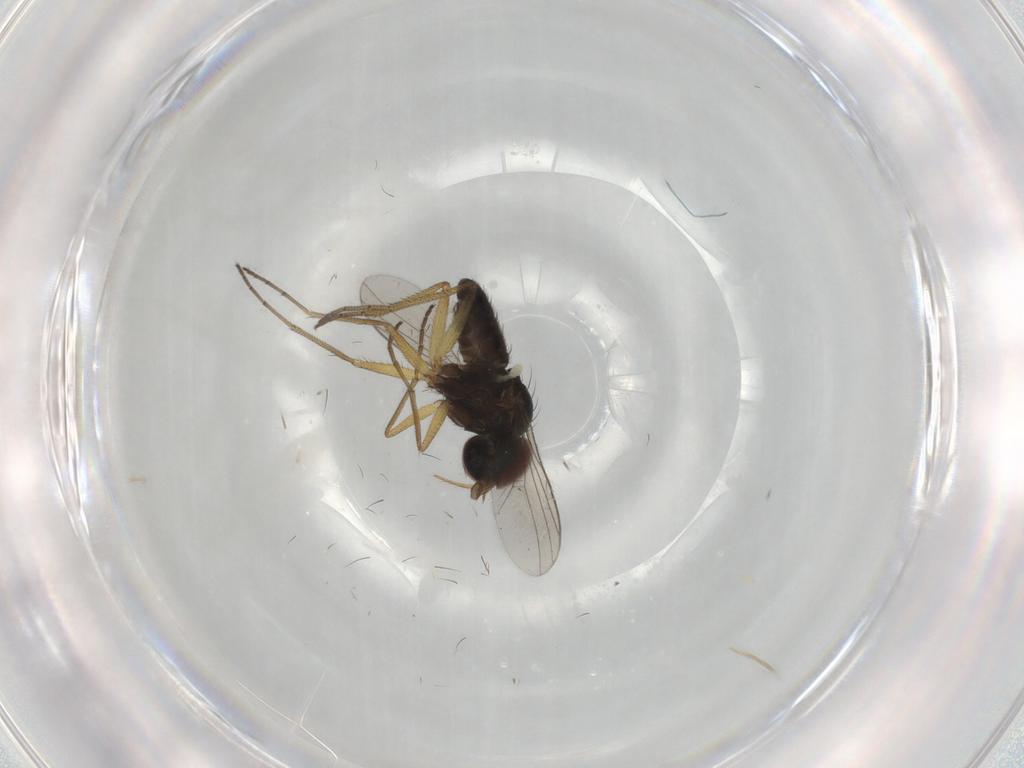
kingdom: Animalia
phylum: Arthropoda
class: Insecta
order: Diptera
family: Dolichopodidae
